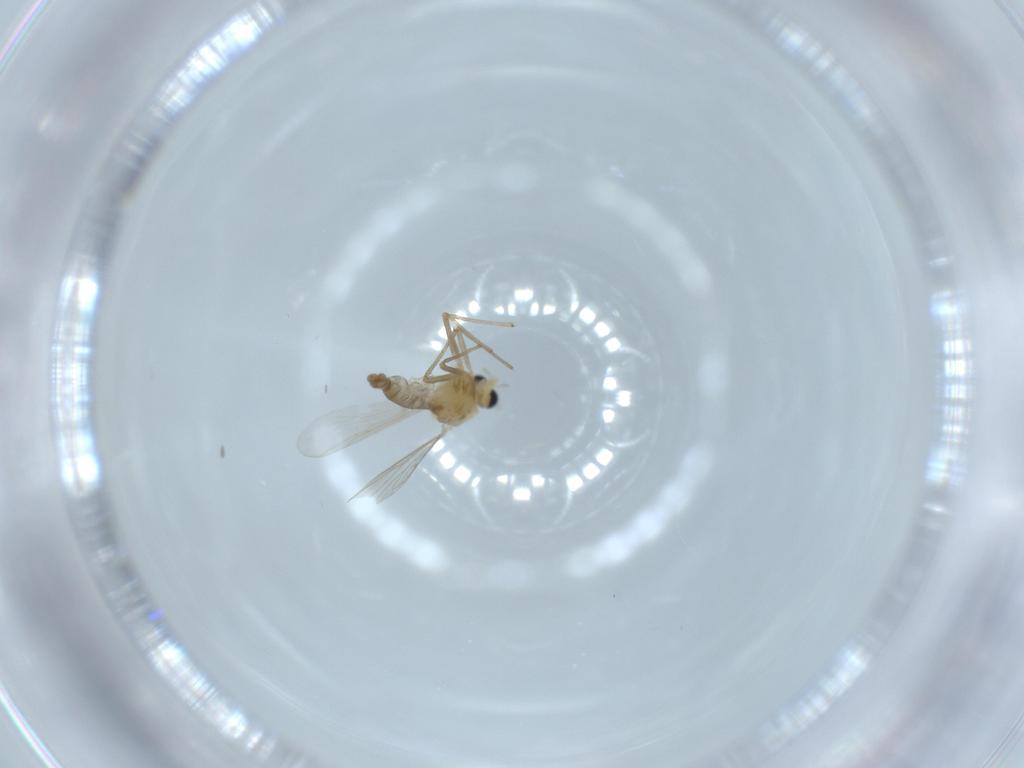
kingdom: Animalia
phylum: Arthropoda
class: Insecta
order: Diptera
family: Chironomidae
